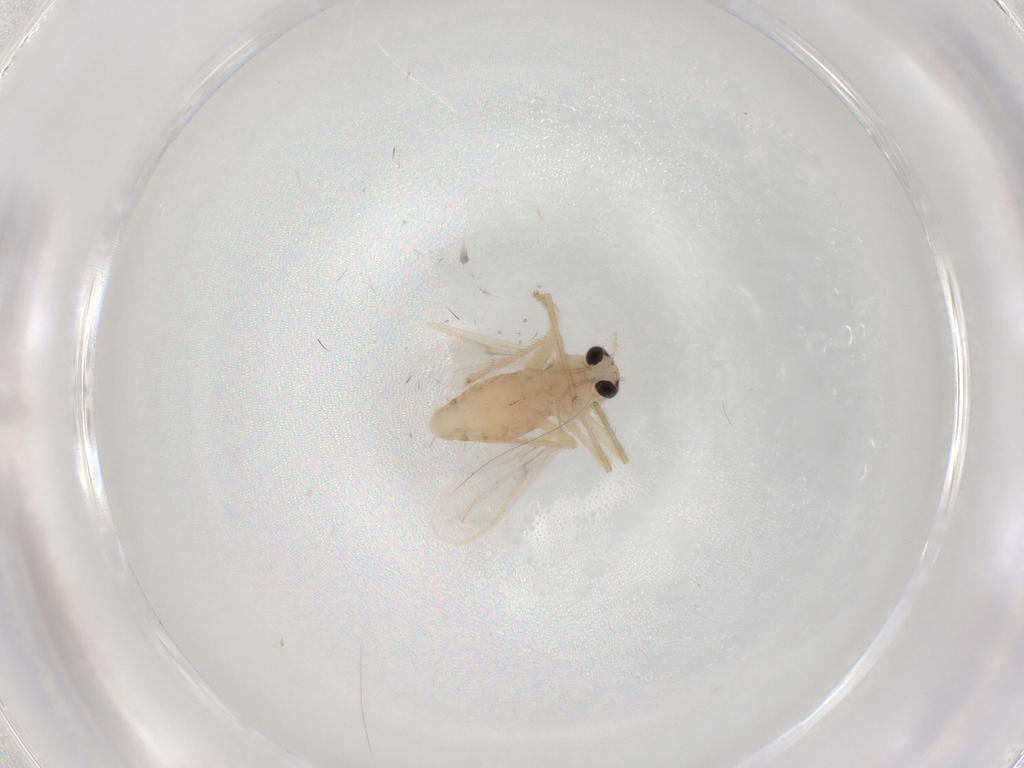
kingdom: Animalia
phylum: Arthropoda
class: Insecta
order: Diptera
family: Chironomidae
